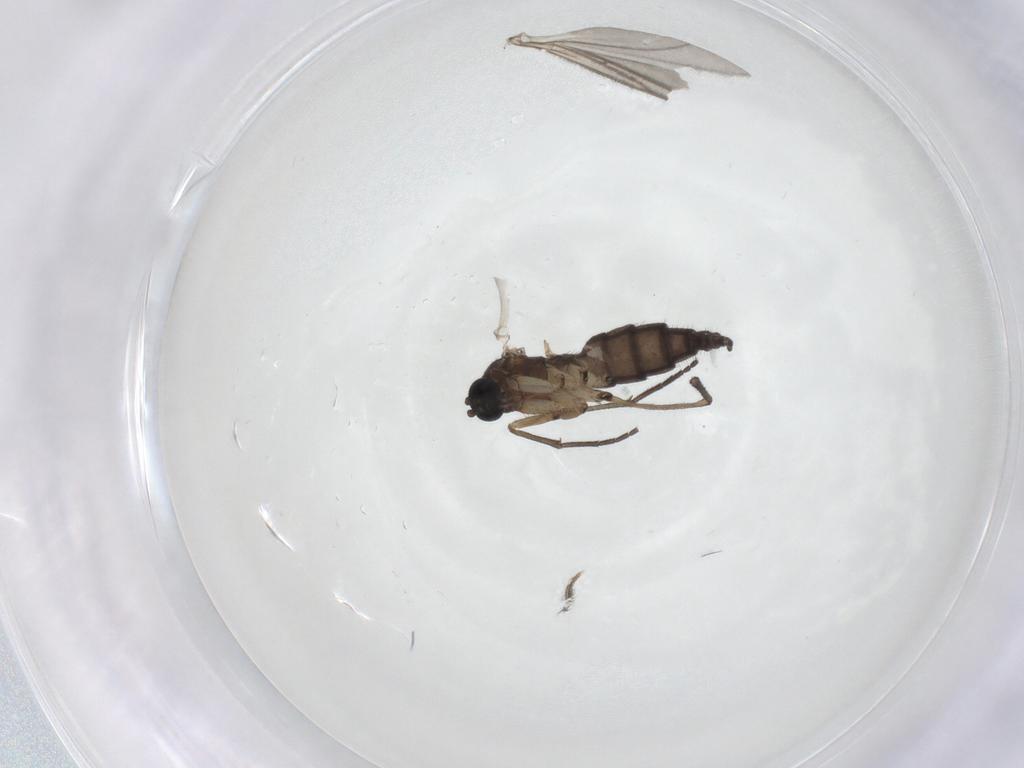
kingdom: Animalia
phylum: Arthropoda
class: Insecta
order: Diptera
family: Sciaridae
